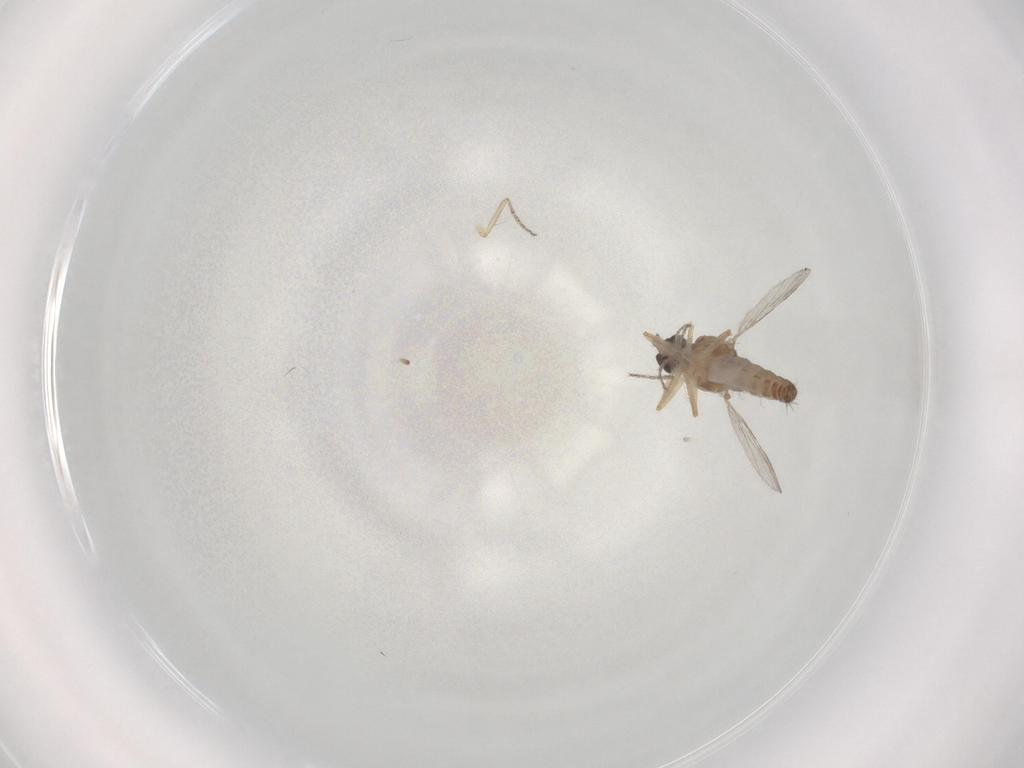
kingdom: Animalia
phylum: Arthropoda
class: Insecta
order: Diptera
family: Ceratopogonidae
